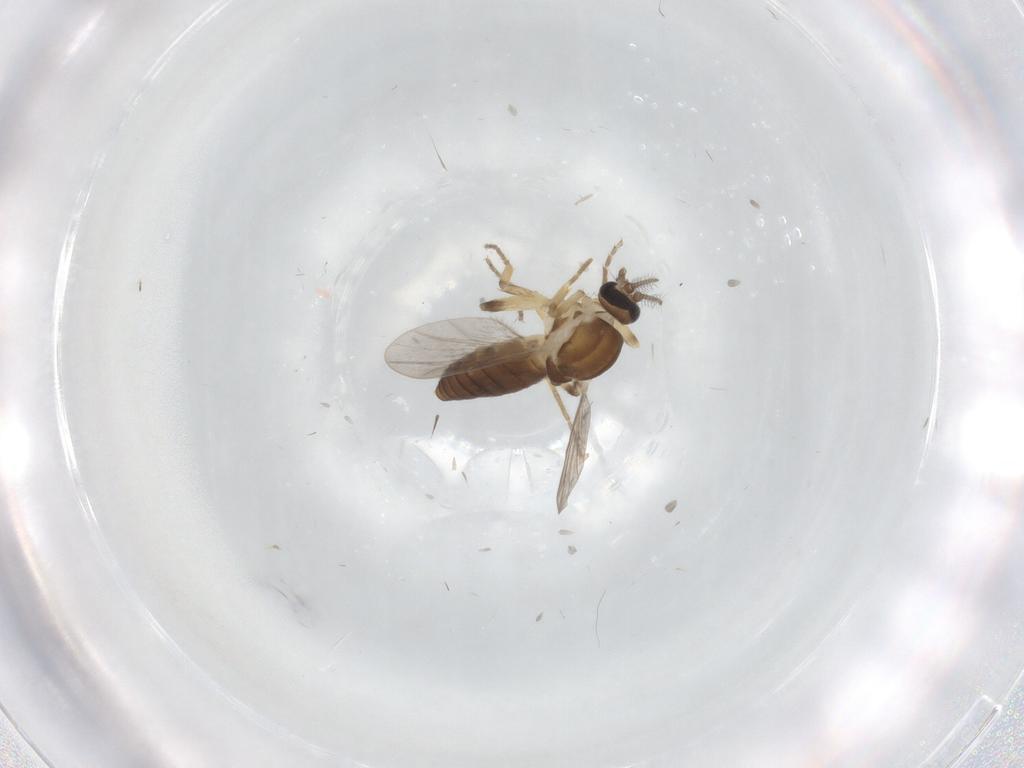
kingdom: Animalia
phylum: Arthropoda
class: Insecta
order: Diptera
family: Ceratopogonidae
